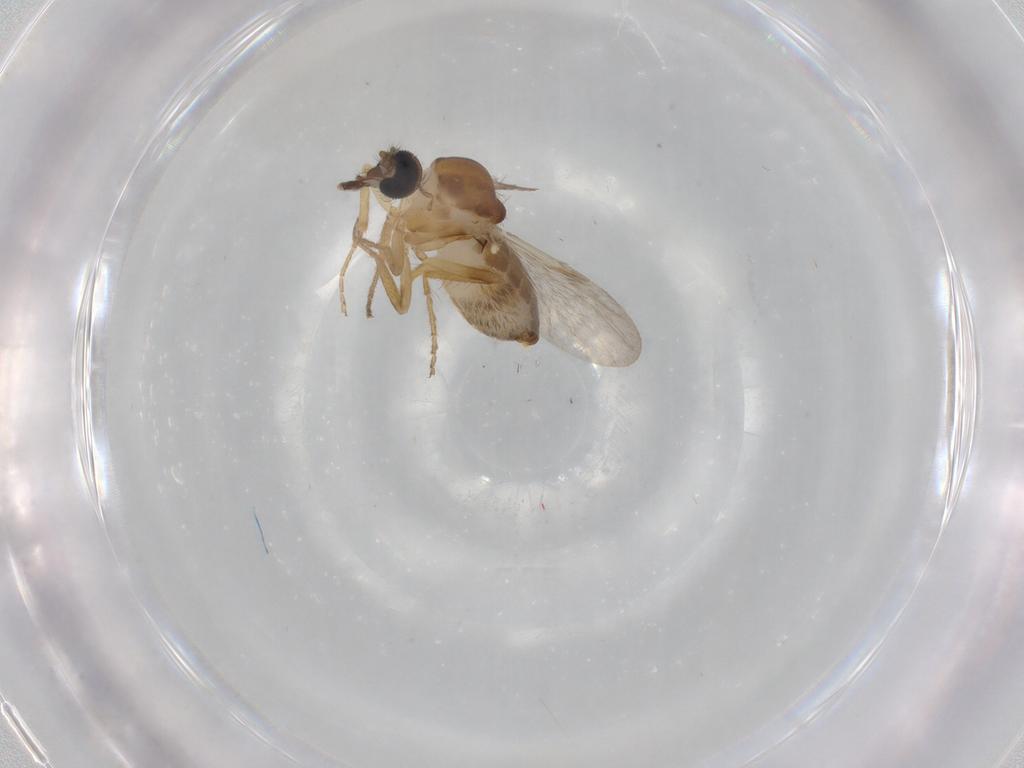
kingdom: Animalia
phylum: Arthropoda
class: Insecta
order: Diptera
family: Ceratopogonidae
